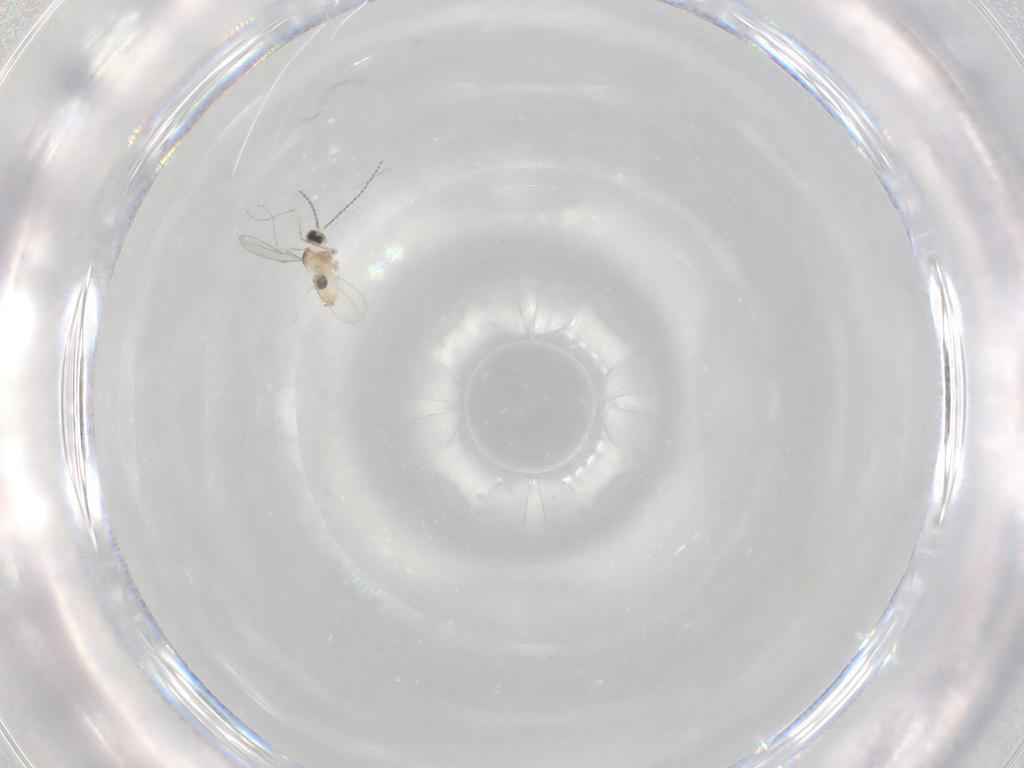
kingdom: Animalia
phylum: Arthropoda
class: Insecta
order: Diptera
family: Cecidomyiidae
